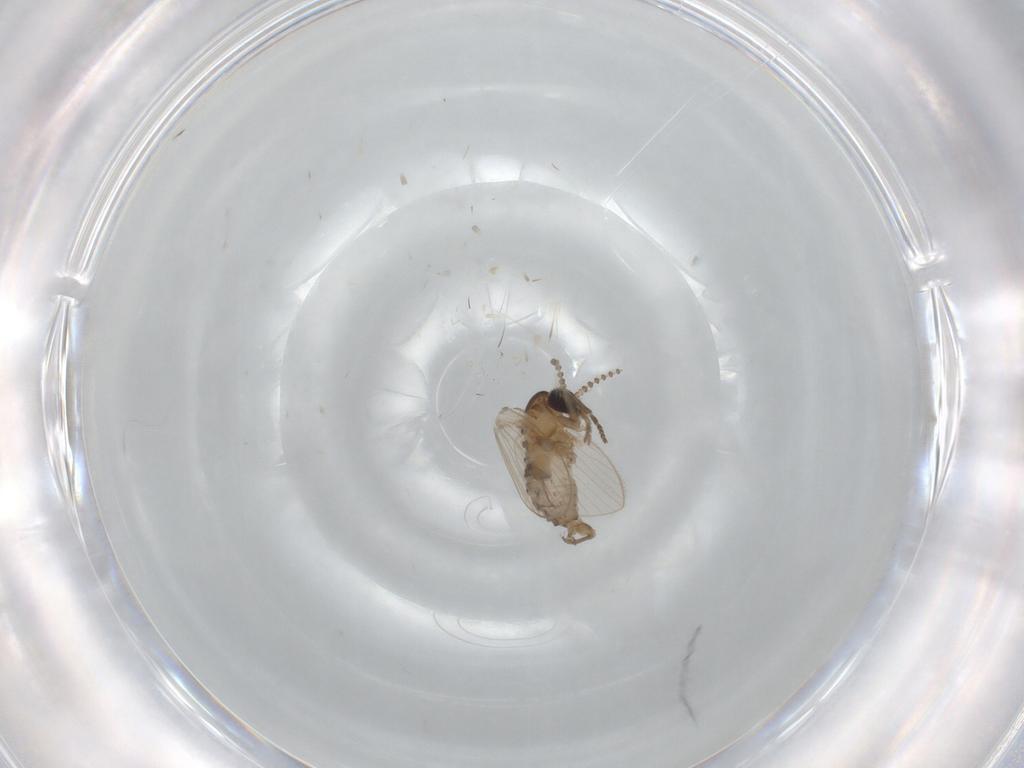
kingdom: Animalia
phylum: Arthropoda
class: Insecta
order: Diptera
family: Psychodidae
